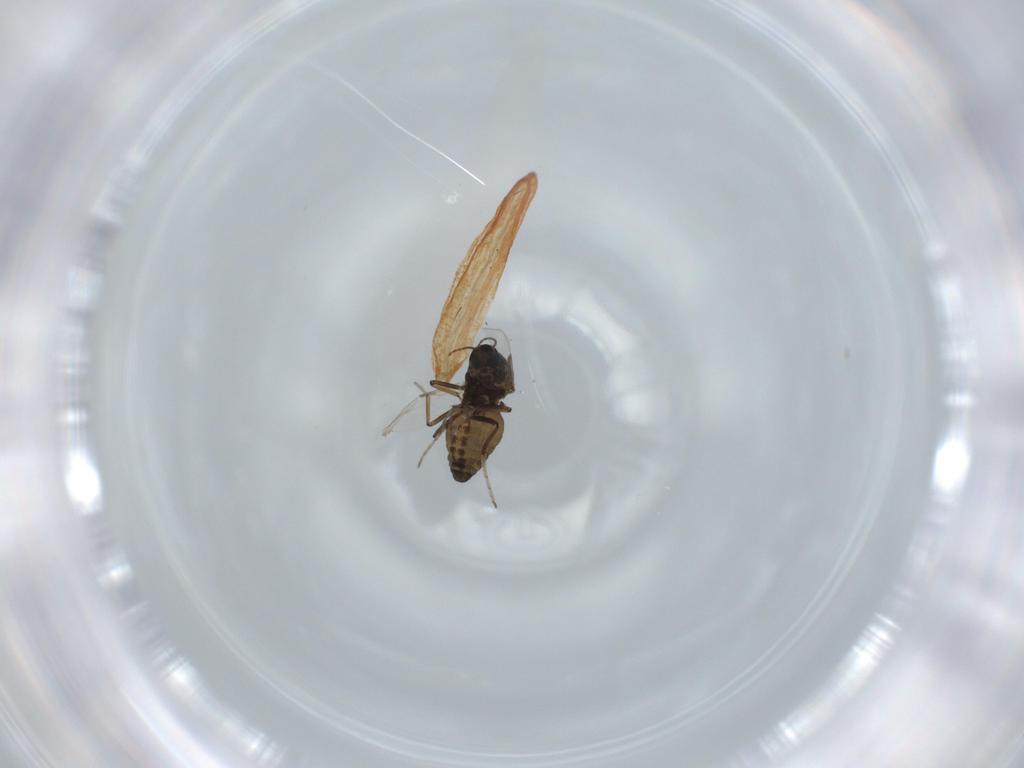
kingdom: Animalia
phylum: Arthropoda
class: Insecta
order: Diptera
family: Ceratopogonidae
